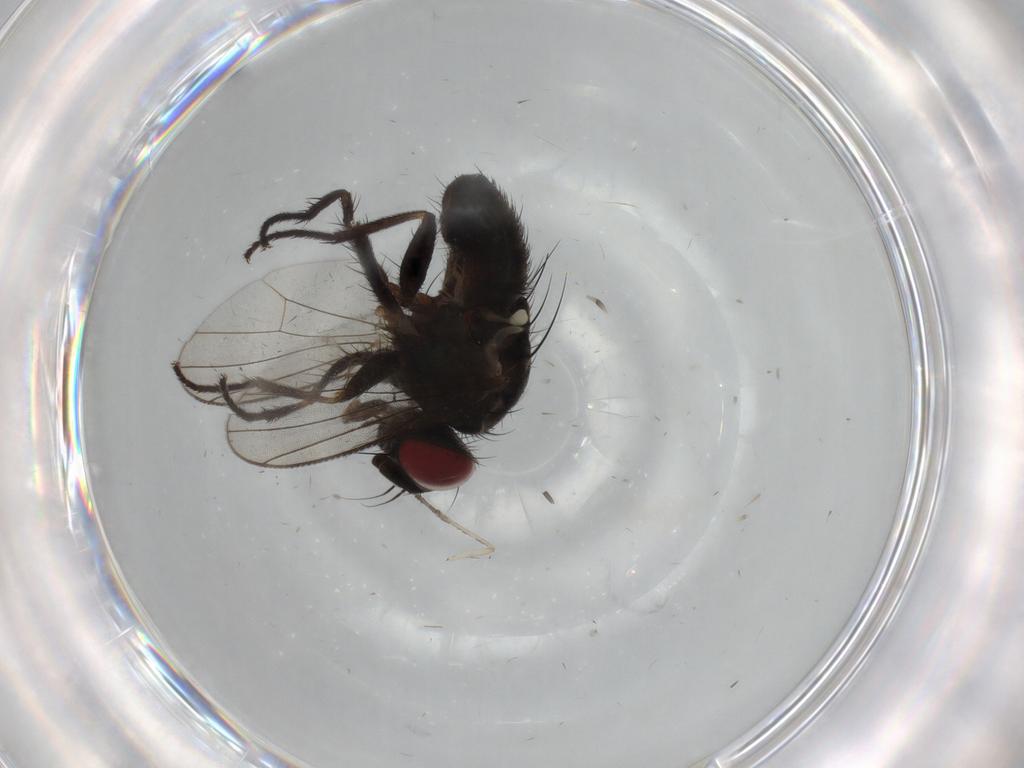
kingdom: Animalia
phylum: Arthropoda
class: Insecta
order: Diptera
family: Muscidae
